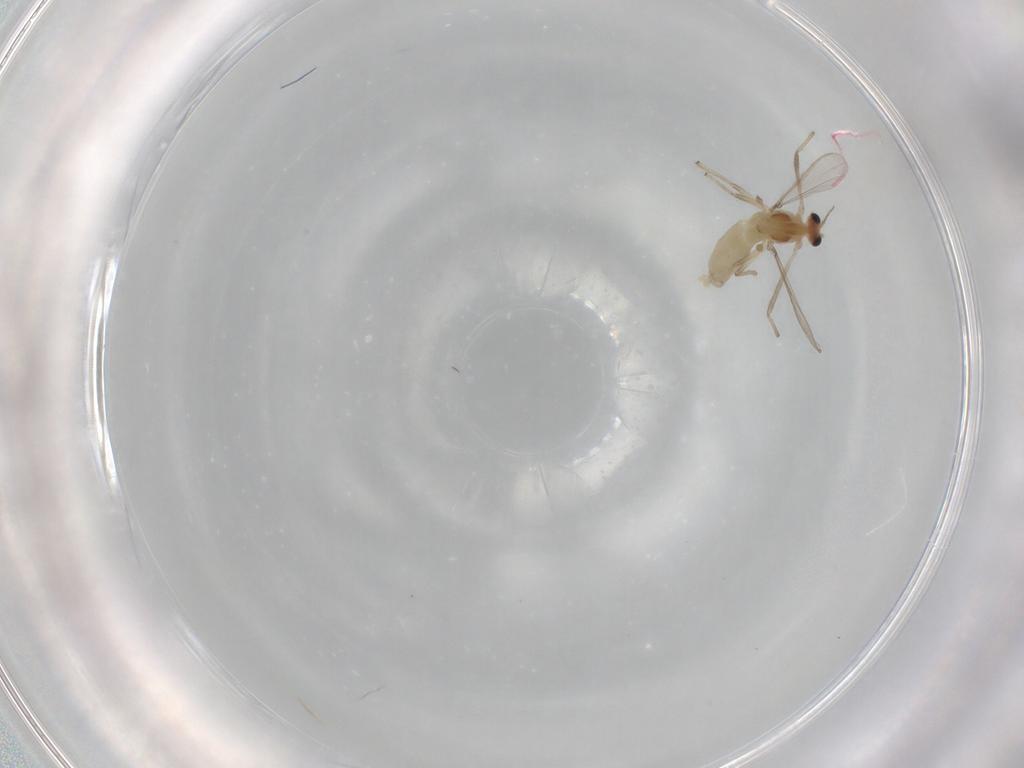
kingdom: Animalia
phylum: Arthropoda
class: Insecta
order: Diptera
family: Chironomidae
